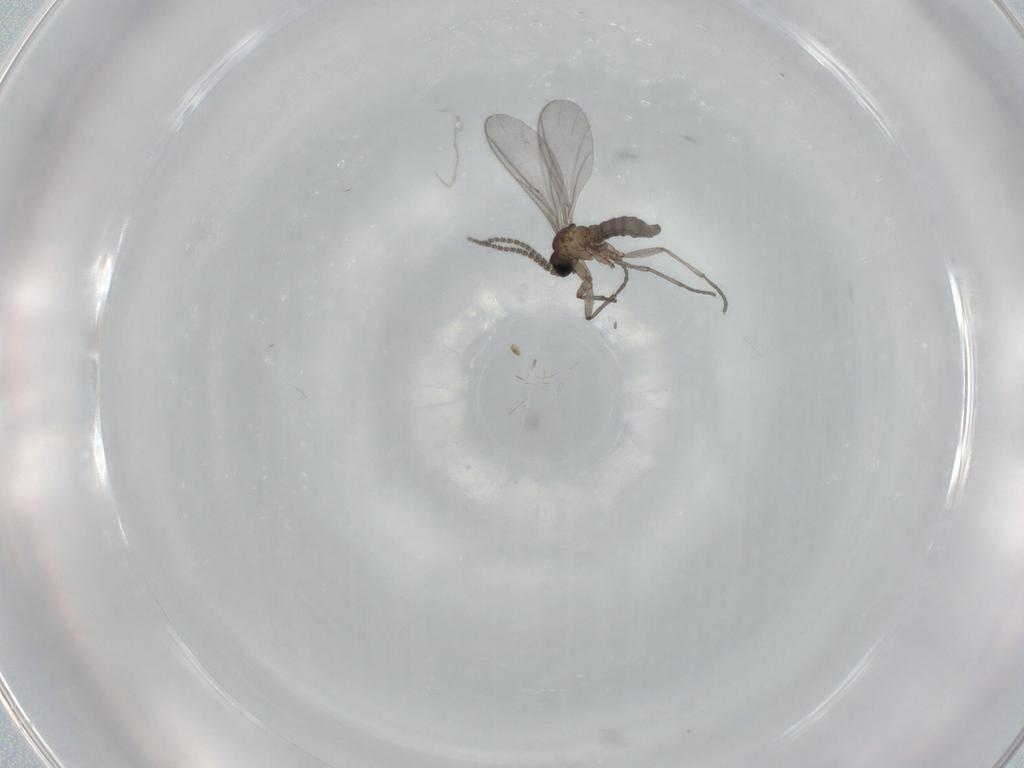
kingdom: Animalia
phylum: Arthropoda
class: Insecta
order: Diptera
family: Sciaridae
